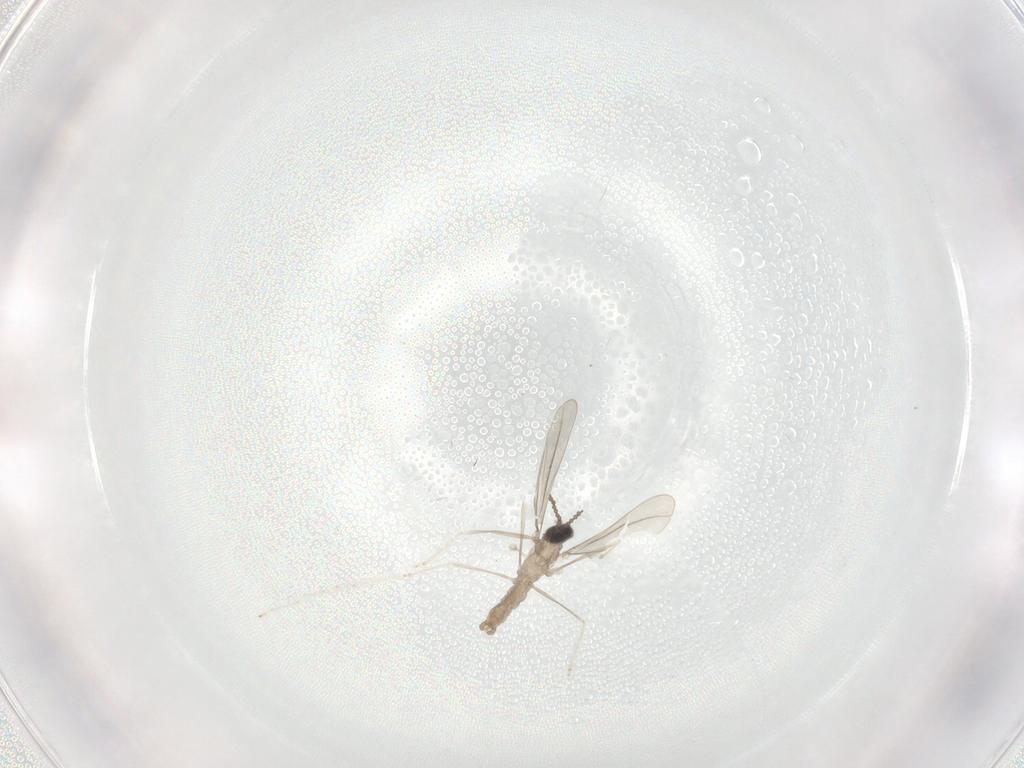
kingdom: Animalia
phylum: Arthropoda
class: Insecta
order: Diptera
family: Cecidomyiidae
